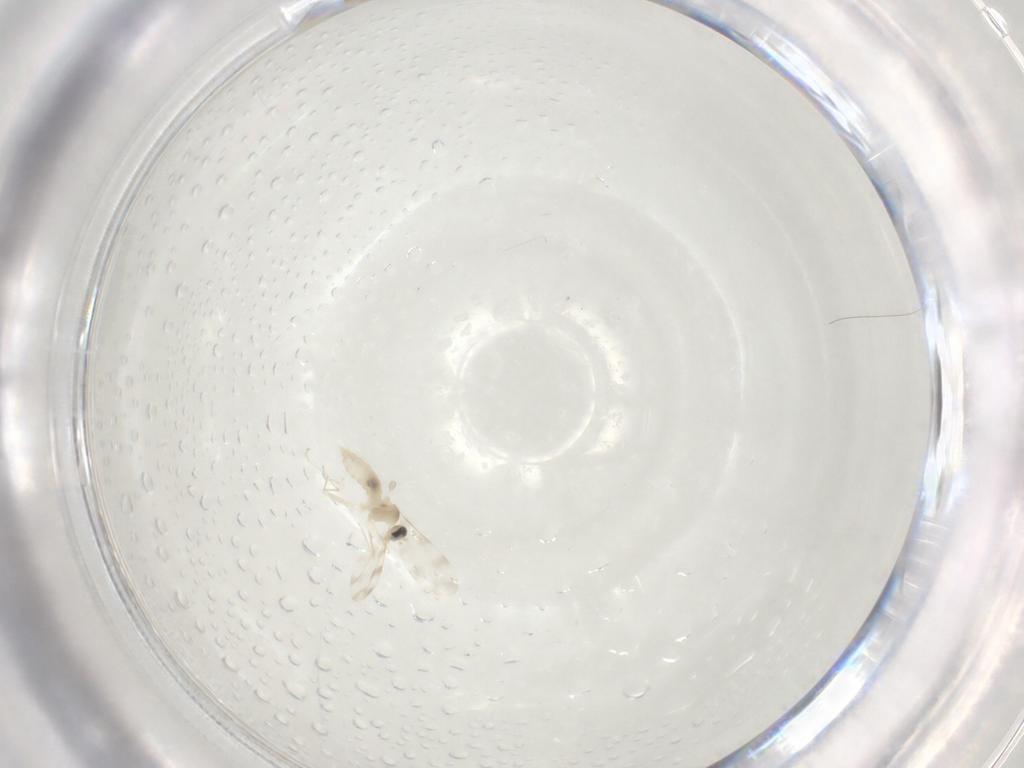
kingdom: Animalia
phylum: Arthropoda
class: Insecta
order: Diptera
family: Cecidomyiidae
